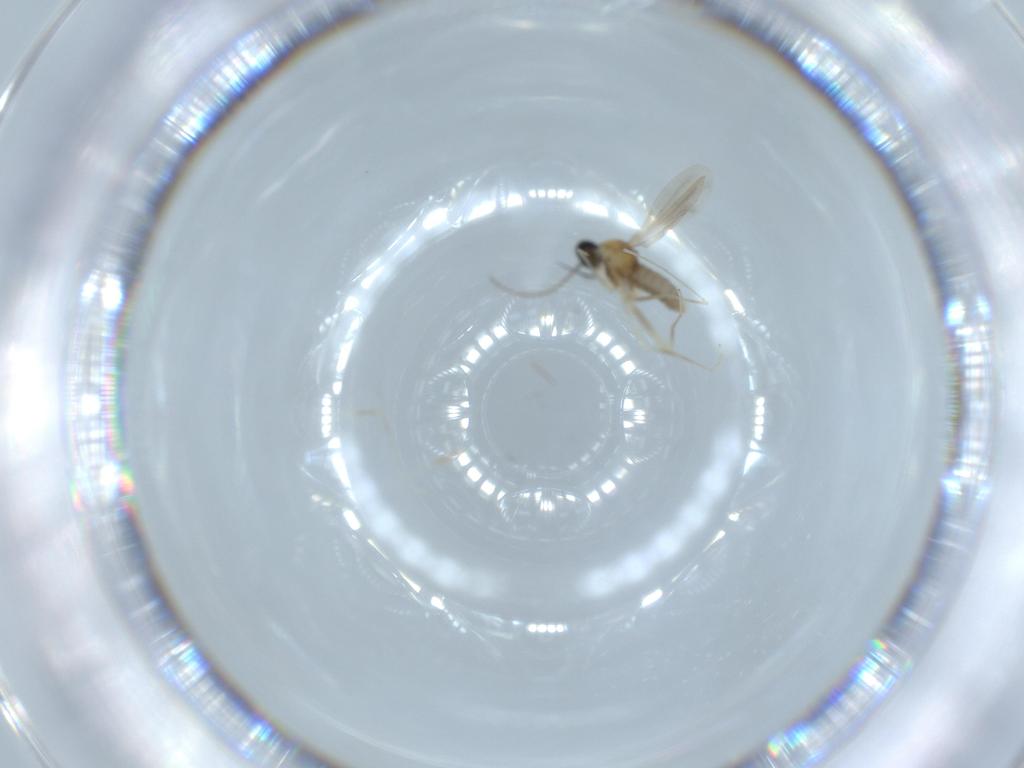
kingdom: Animalia
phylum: Arthropoda
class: Insecta
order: Diptera
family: Cecidomyiidae
